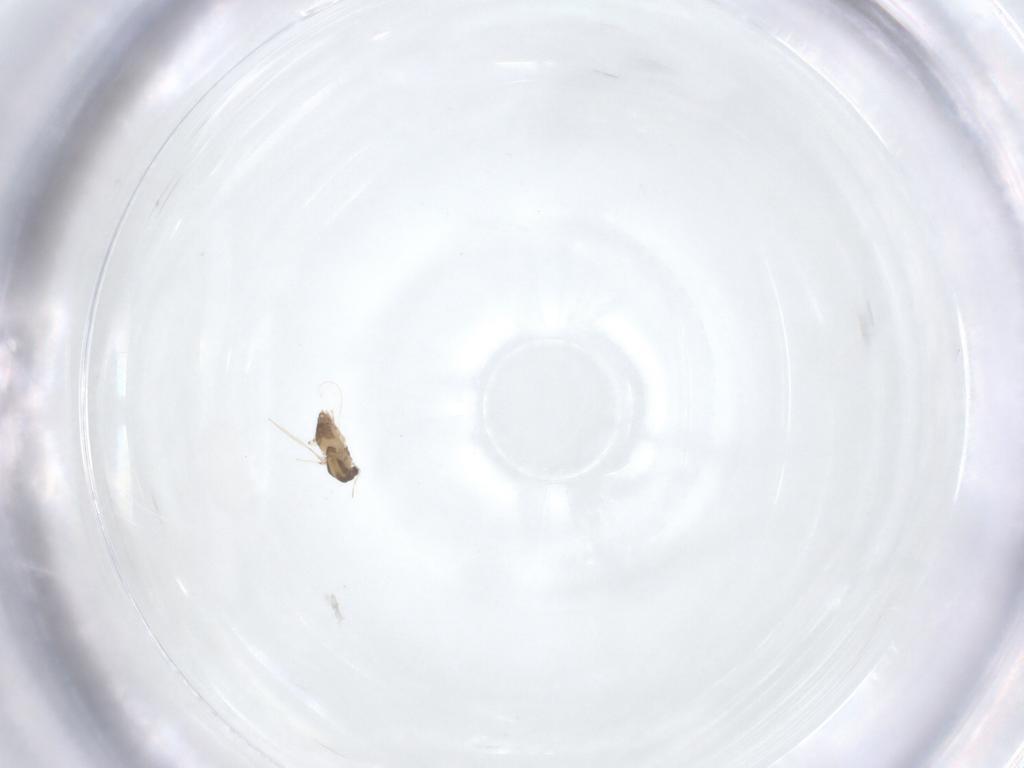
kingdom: Animalia
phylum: Arthropoda
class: Insecta
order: Diptera
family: Chironomidae
